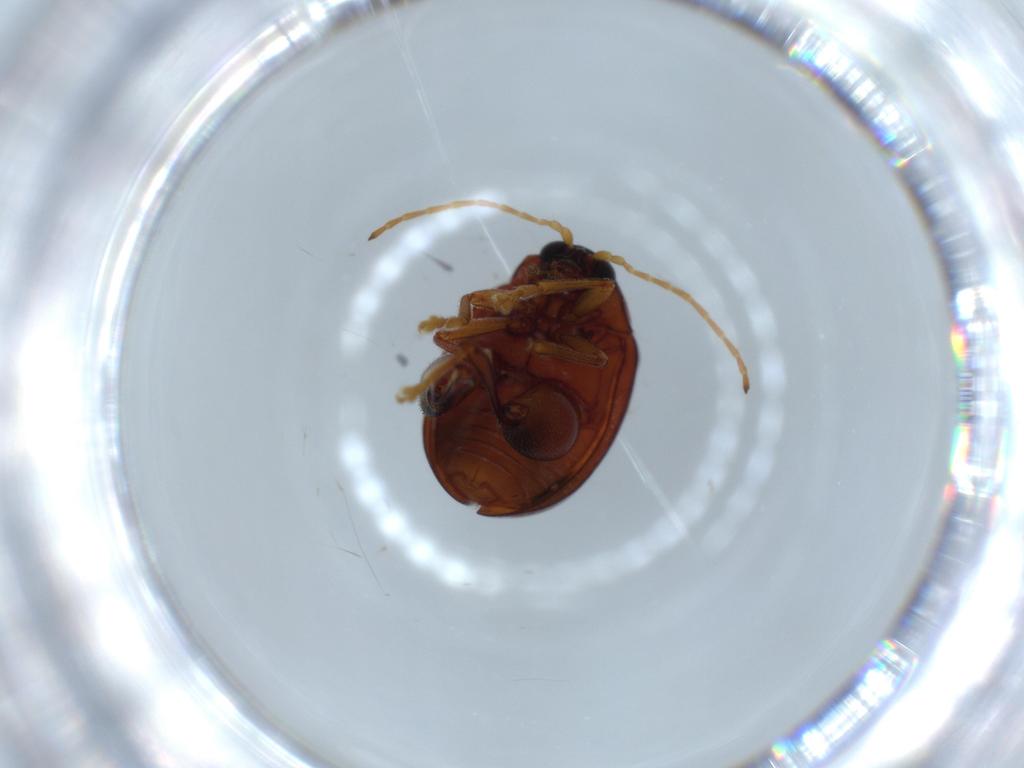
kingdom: Animalia
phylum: Arthropoda
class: Insecta
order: Coleoptera
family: Chrysomelidae
